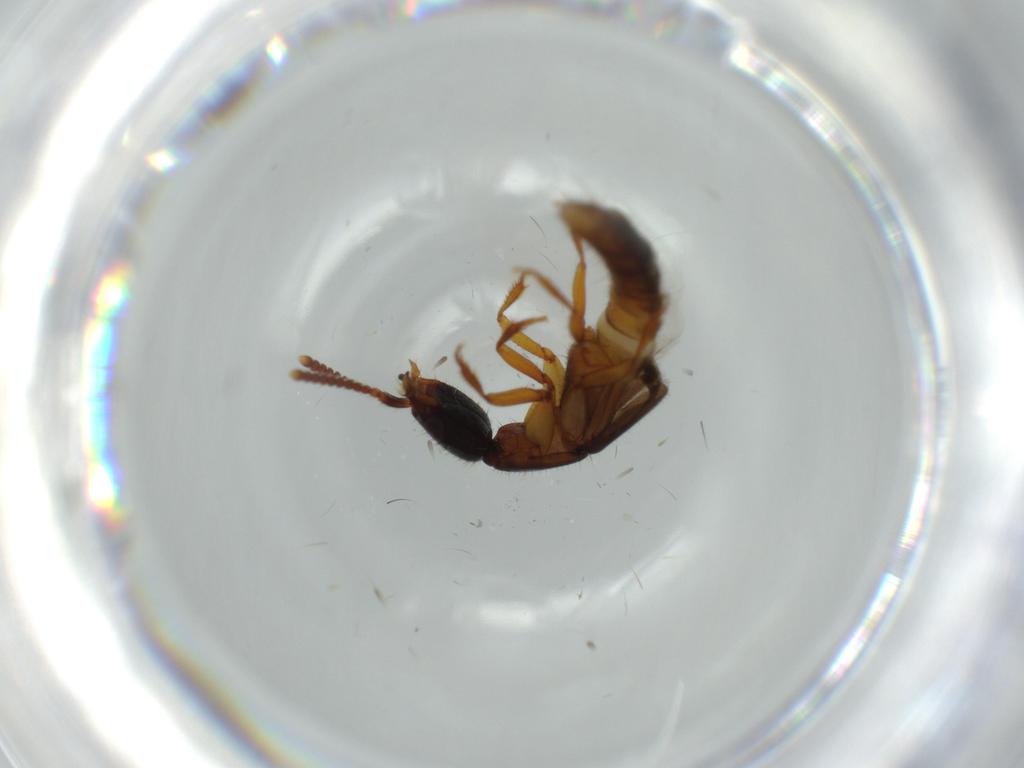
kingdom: Animalia
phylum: Arthropoda
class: Insecta
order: Coleoptera
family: Staphylinidae
